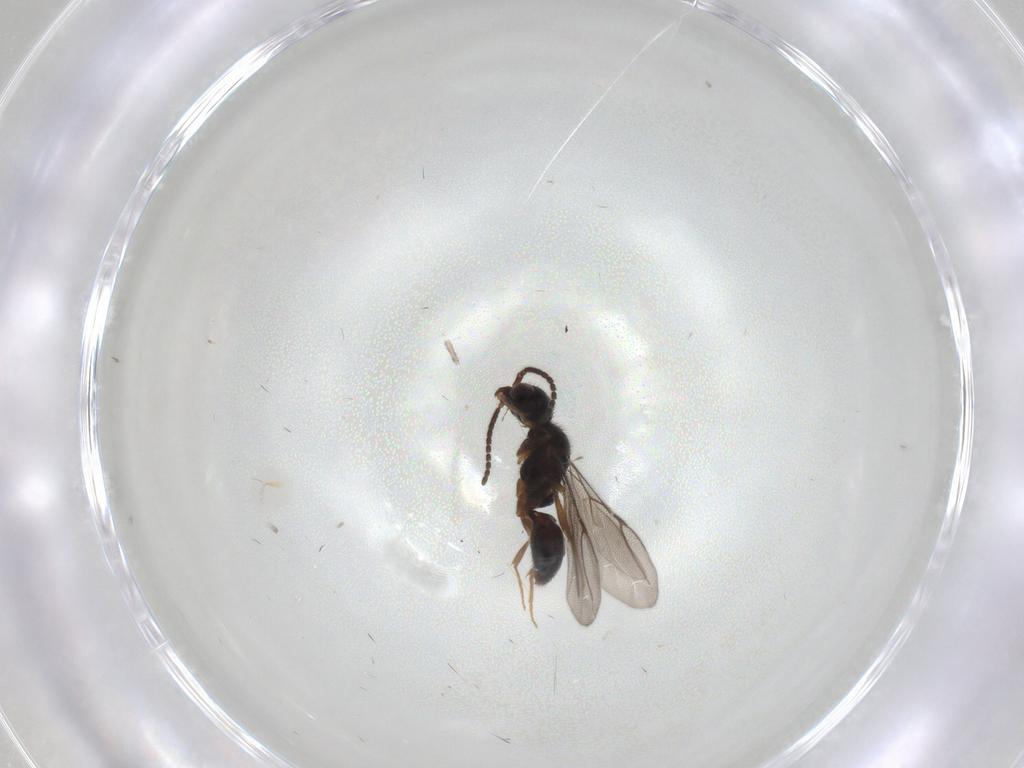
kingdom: Animalia
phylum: Arthropoda
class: Insecta
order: Hymenoptera
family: Bethylidae
